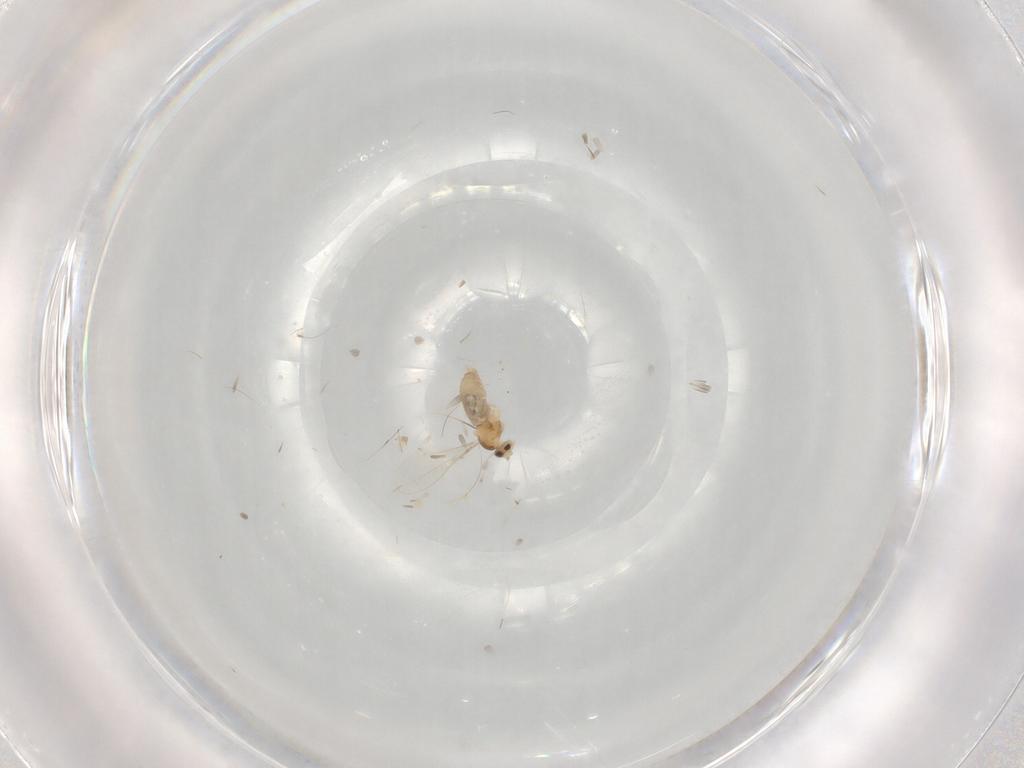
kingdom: Animalia
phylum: Arthropoda
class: Insecta
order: Diptera
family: Cecidomyiidae
